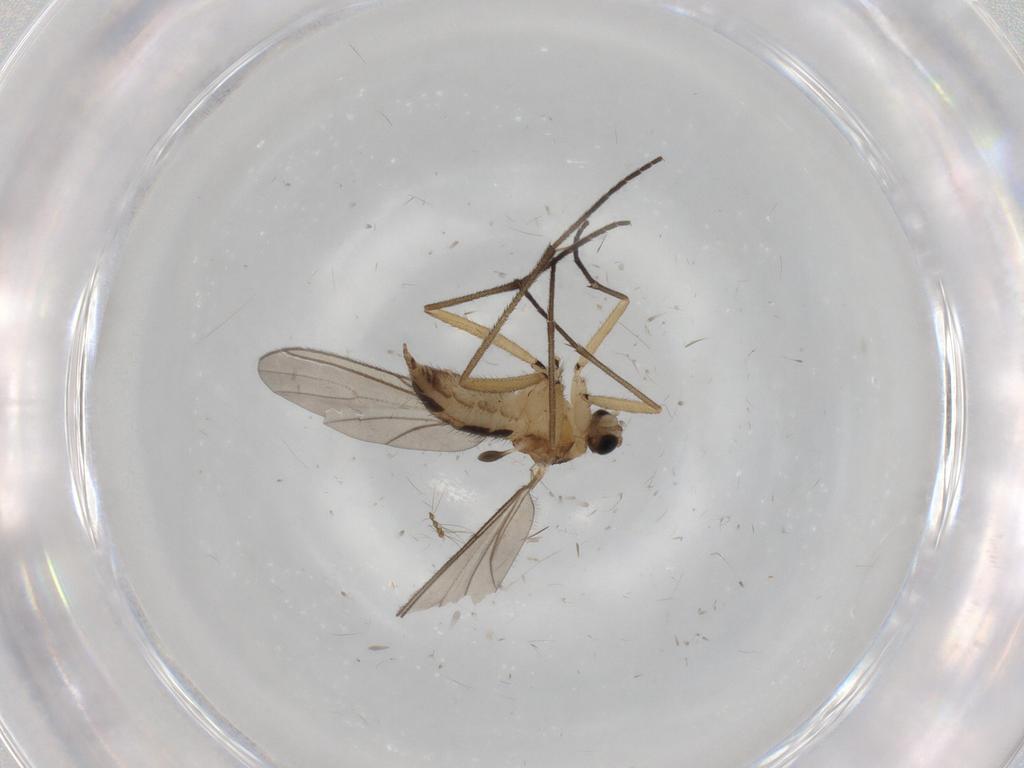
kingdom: Animalia
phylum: Arthropoda
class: Insecta
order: Diptera
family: Sciaridae
